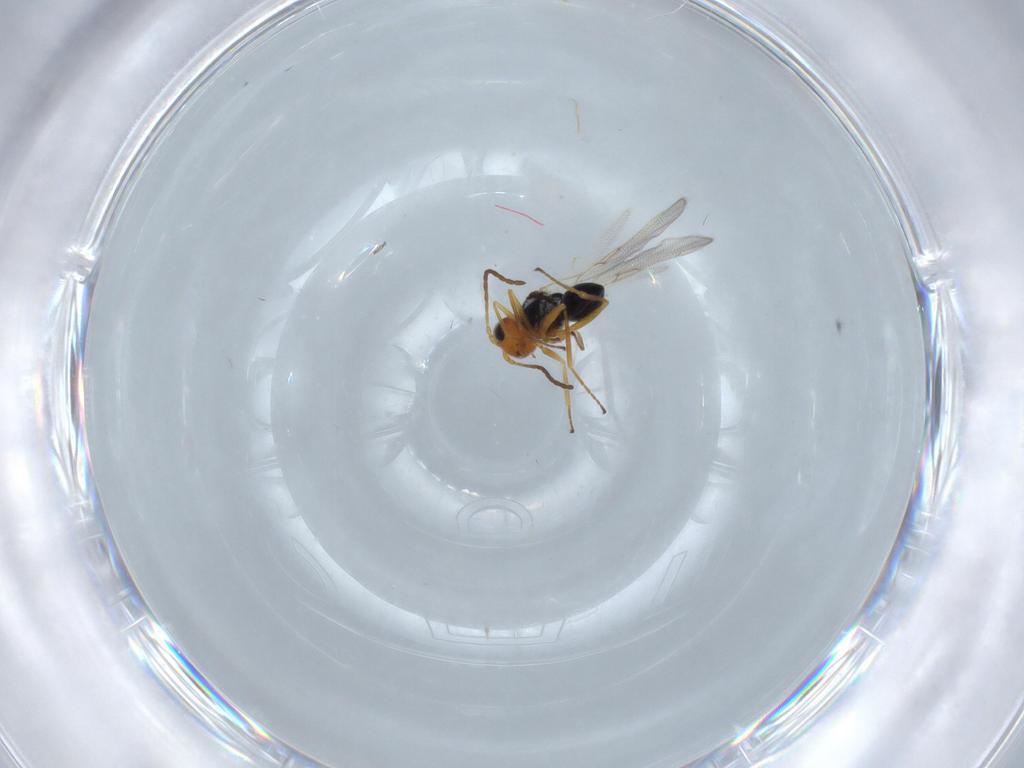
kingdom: Animalia
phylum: Arthropoda
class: Insecta
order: Hymenoptera
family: Figitidae
